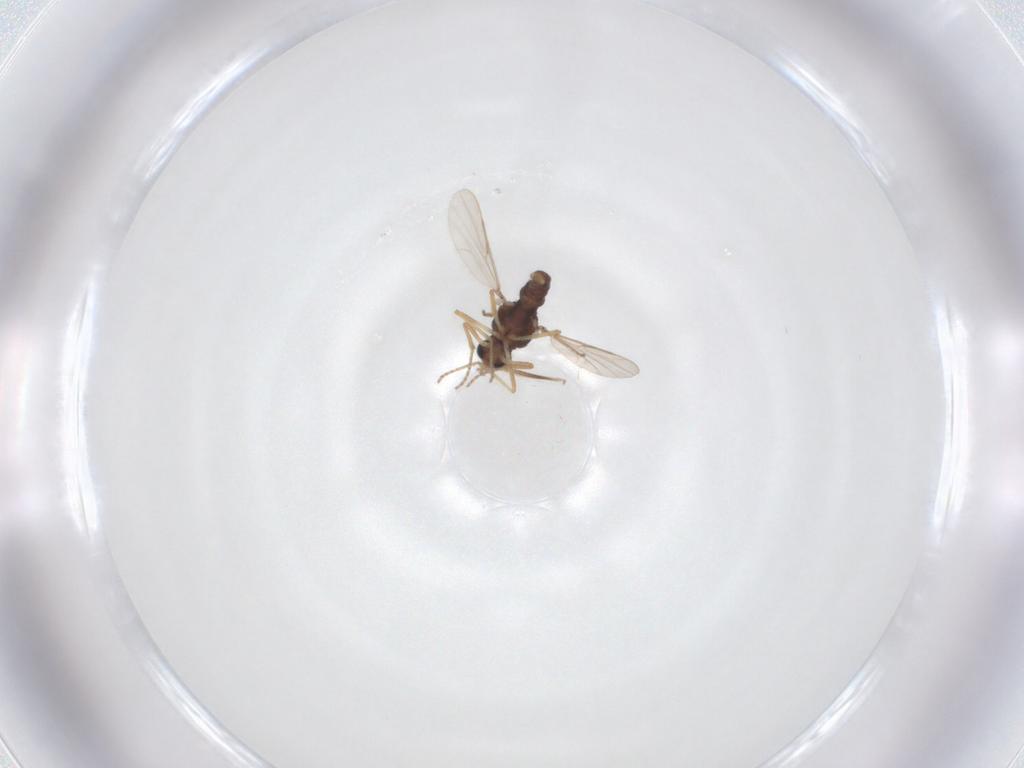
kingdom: Animalia
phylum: Arthropoda
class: Insecta
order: Diptera
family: Ceratopogonidae
